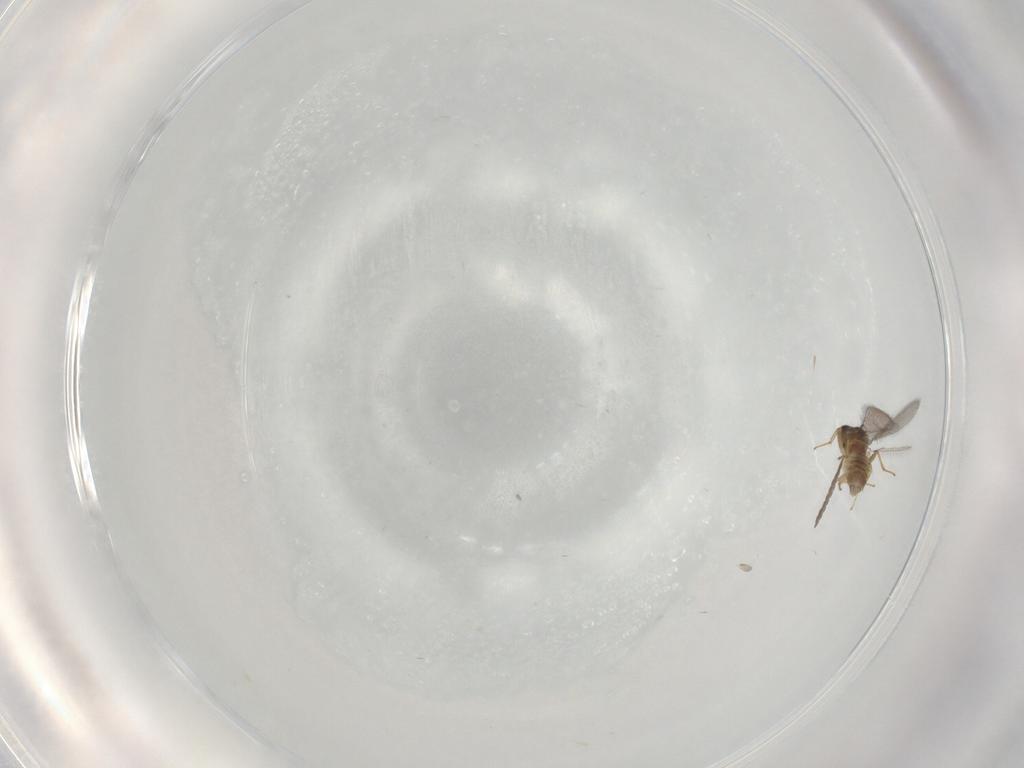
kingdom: Animalia
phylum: Arthropoda
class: Insecta
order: Hymenoptera
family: Mymaridae
